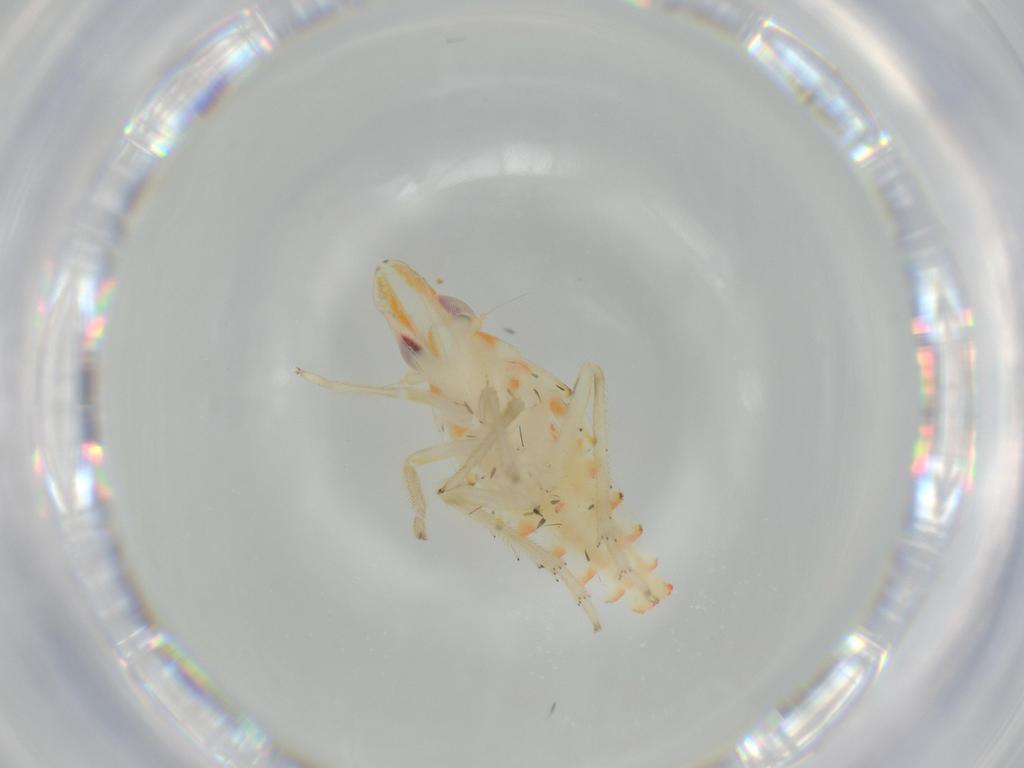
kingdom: Animalia
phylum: Arthropoda
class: Insecta
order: Hemiptera
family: Tropiduchidae
